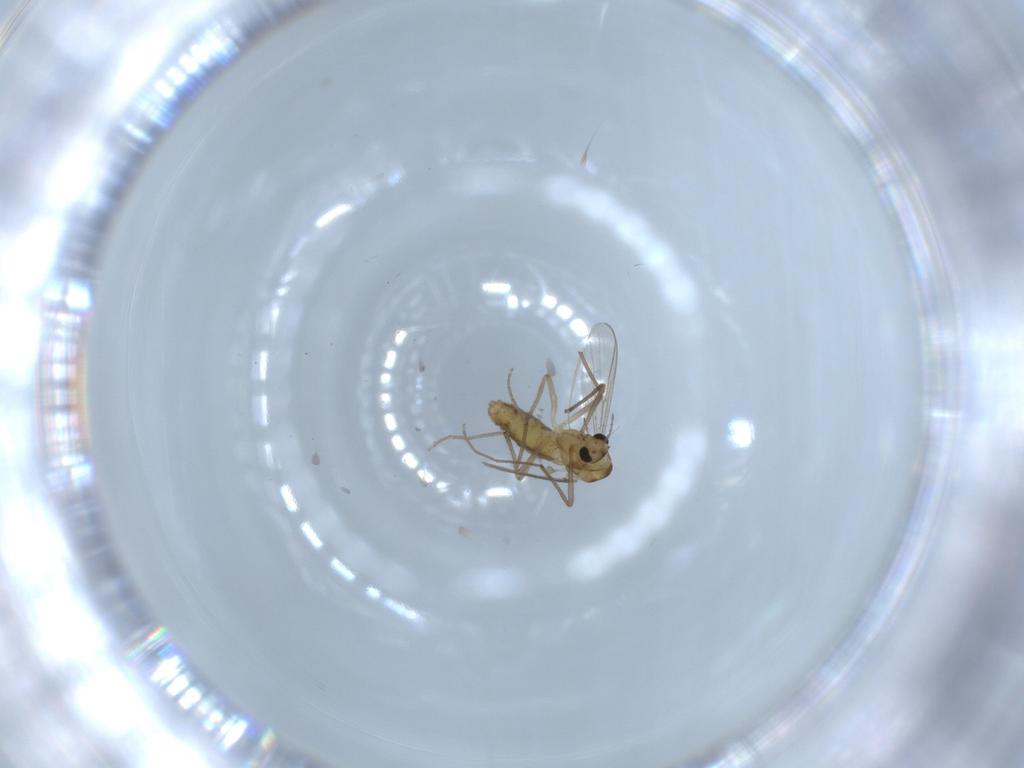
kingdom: Animalia
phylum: Arthropoda
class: Insecta
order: Diptera
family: Chironomidae
